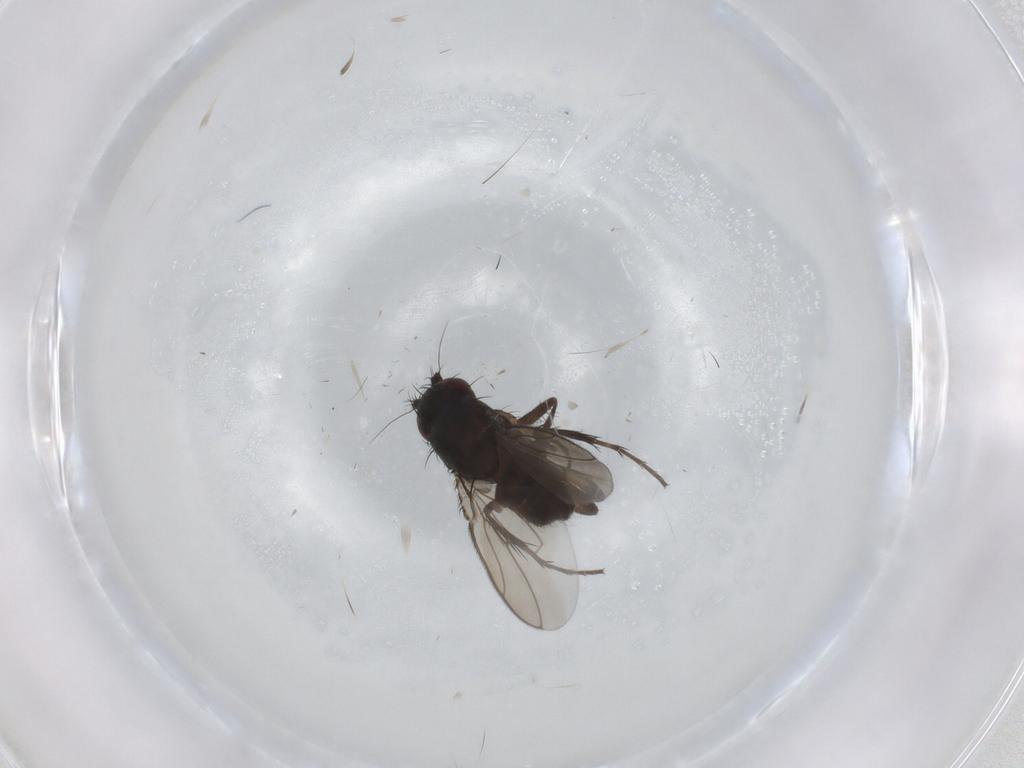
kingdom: Animalia
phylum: Arthropoda
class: Insecta
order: Diptera
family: Sphaeroceridae
